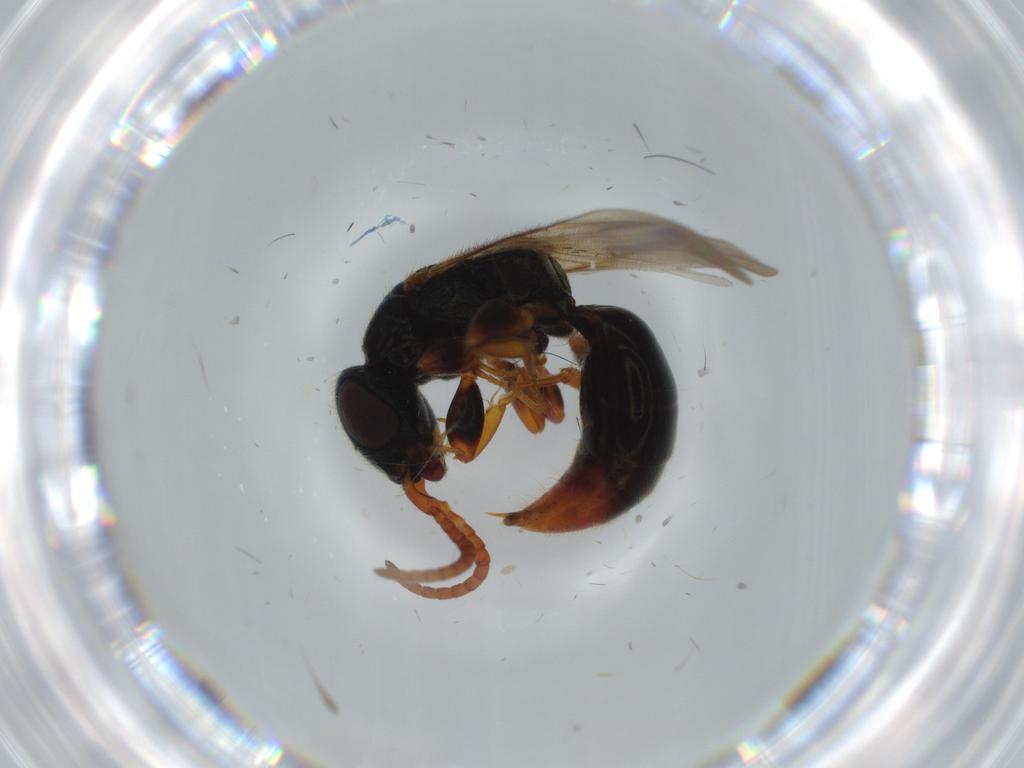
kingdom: Animalia
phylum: Arthropoda
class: Insecta
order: Hymenoptera
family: Bethylidae
